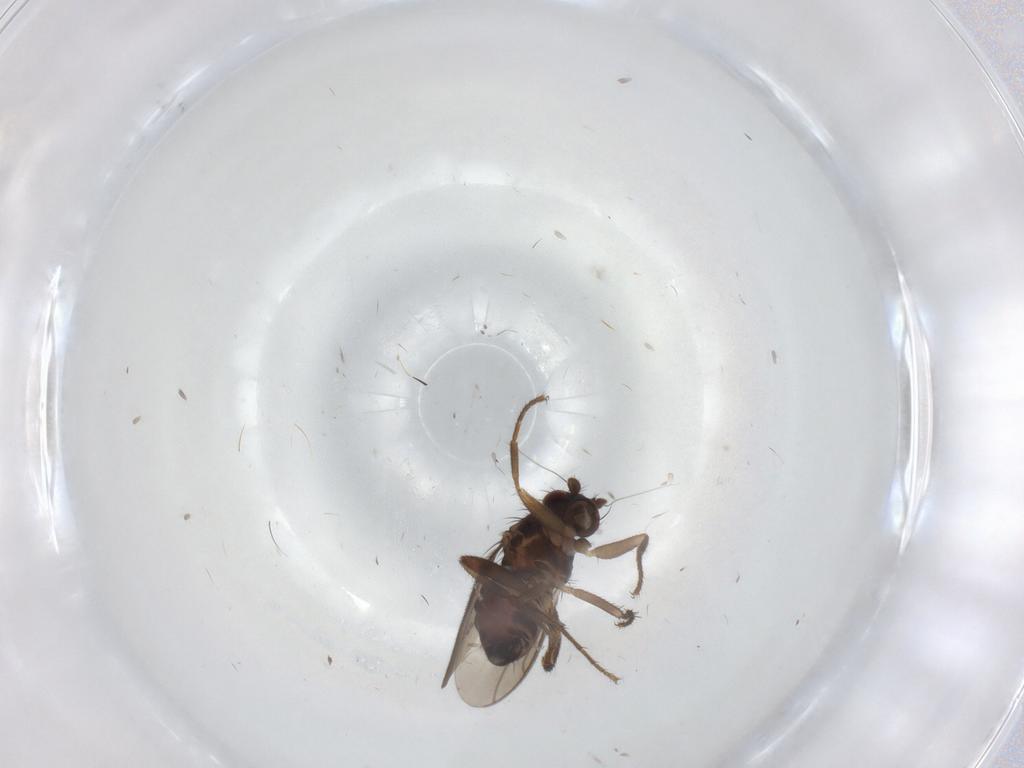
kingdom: Animalia
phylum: Arthropoda
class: Insecta
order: Diptera
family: Sphaeroceridae
